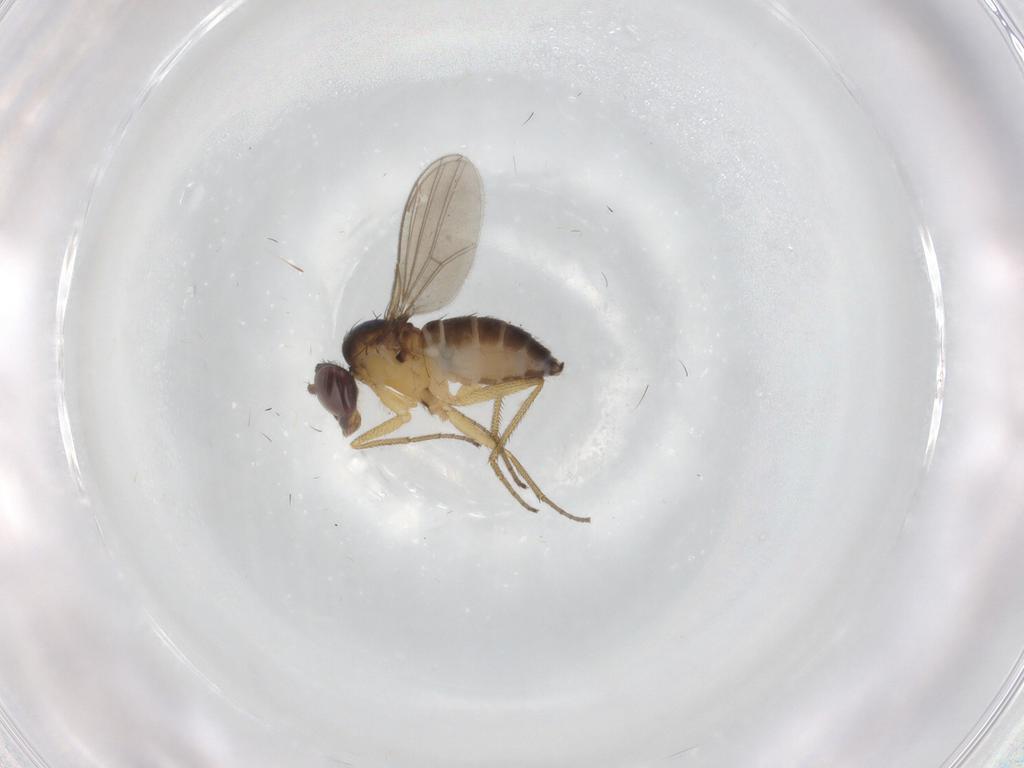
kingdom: Animalia
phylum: Arthropoda
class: Insecta
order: Diptera
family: Dolichopodidae
